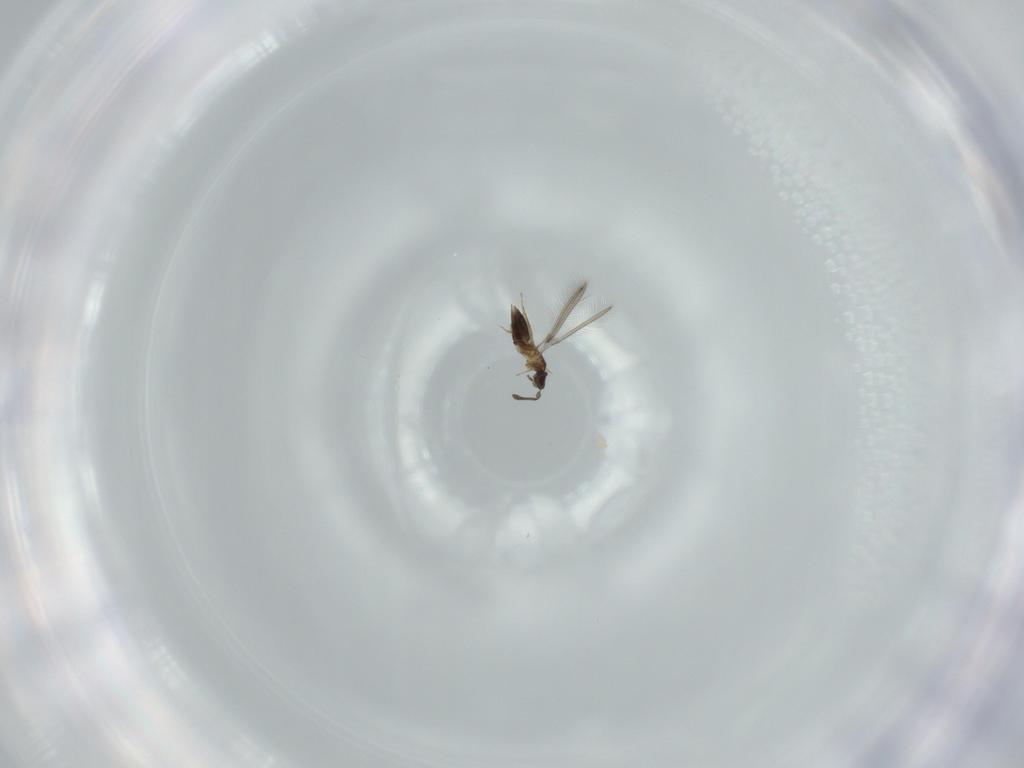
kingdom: Animalia
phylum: Arthropoda
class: Insecta
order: Hymenoptera
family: Mymaridae
